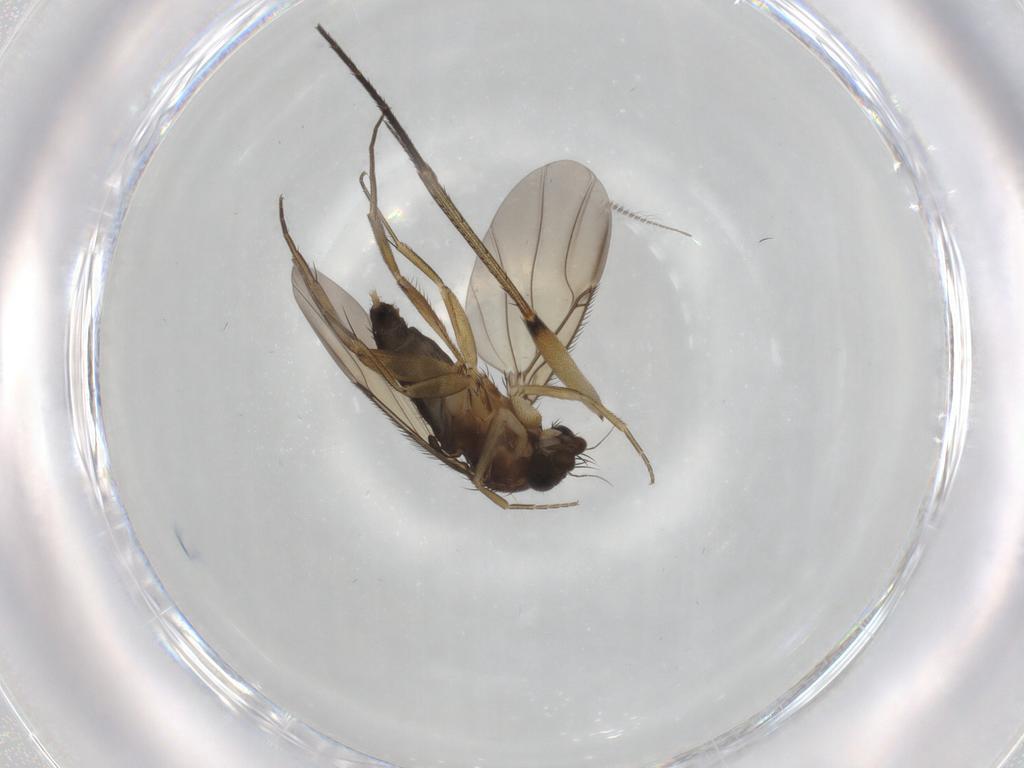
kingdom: Animalia
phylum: Arthropoda
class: Insecta
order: Diptera
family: Phoridae
